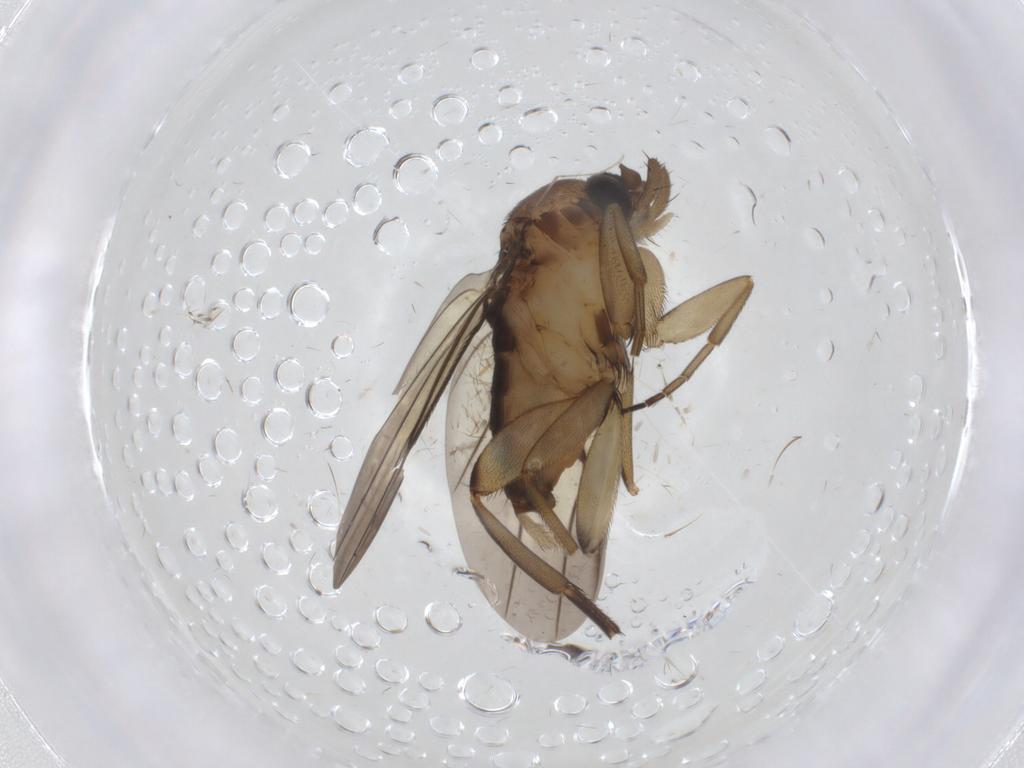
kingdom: Animalia
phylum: Arthropoda
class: Insecta
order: Diptera
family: Phoridae
